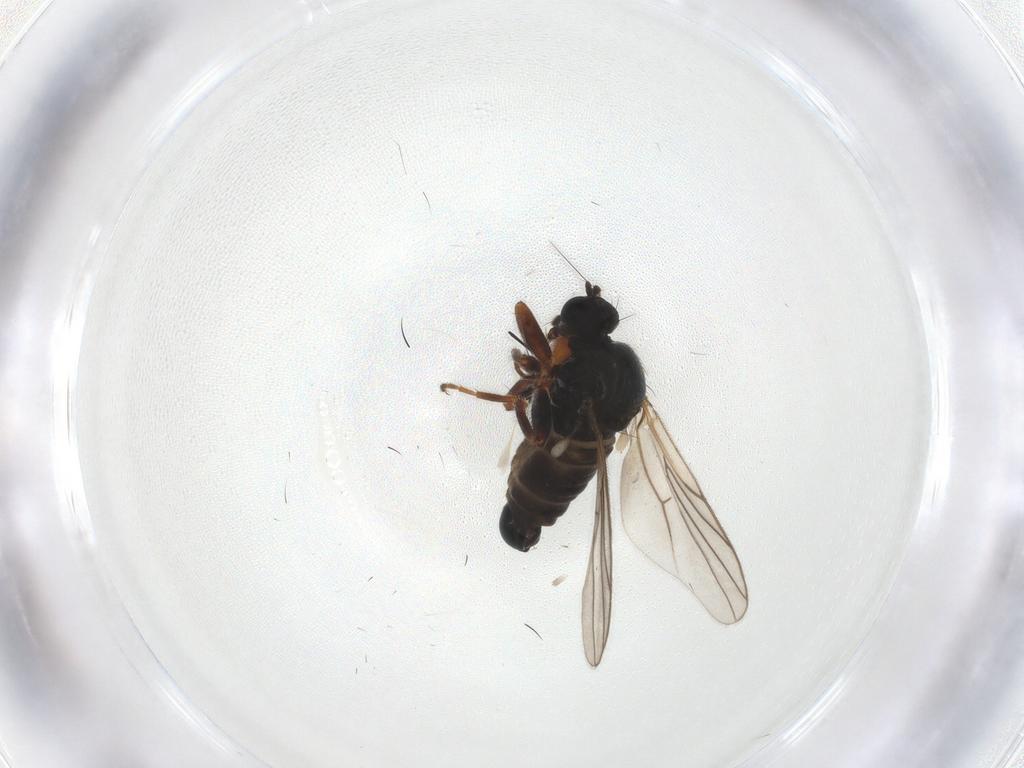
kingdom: Animalia
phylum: Arthropoda
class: Insecta
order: Diptera
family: Hybotidae
